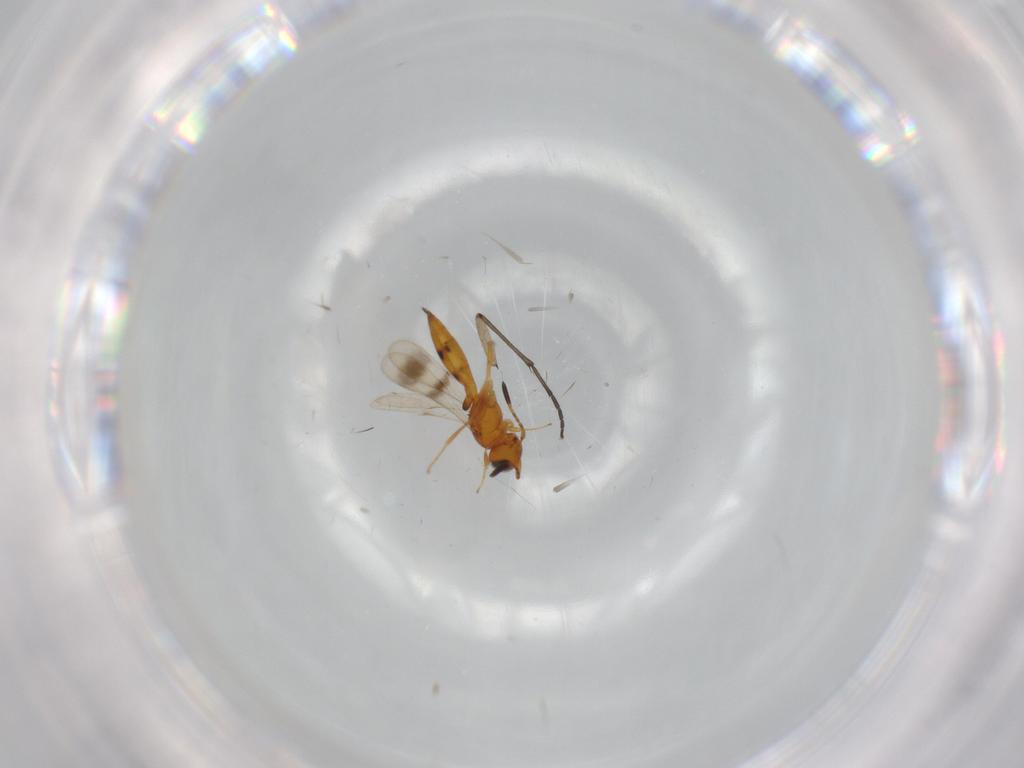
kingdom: Animalia
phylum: Arthropoda
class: Insecta
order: Hymenoptera
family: Scelionidae
